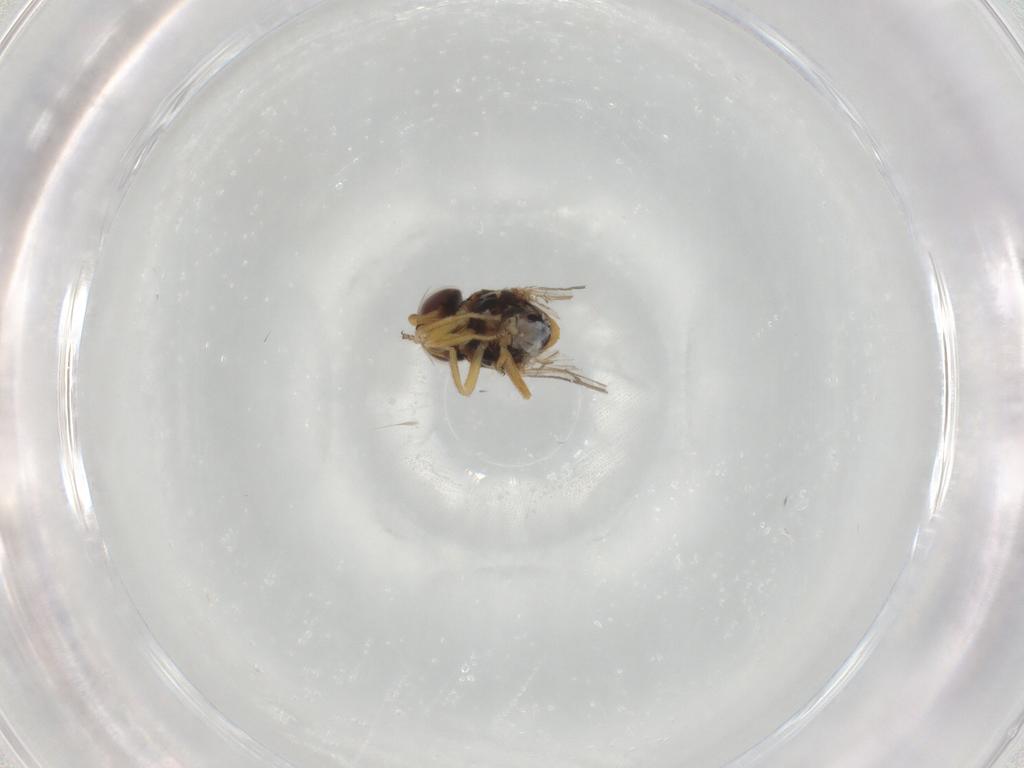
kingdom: Animalia
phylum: Arthropoda
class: Insecta
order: Diptera
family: Chloropidae
